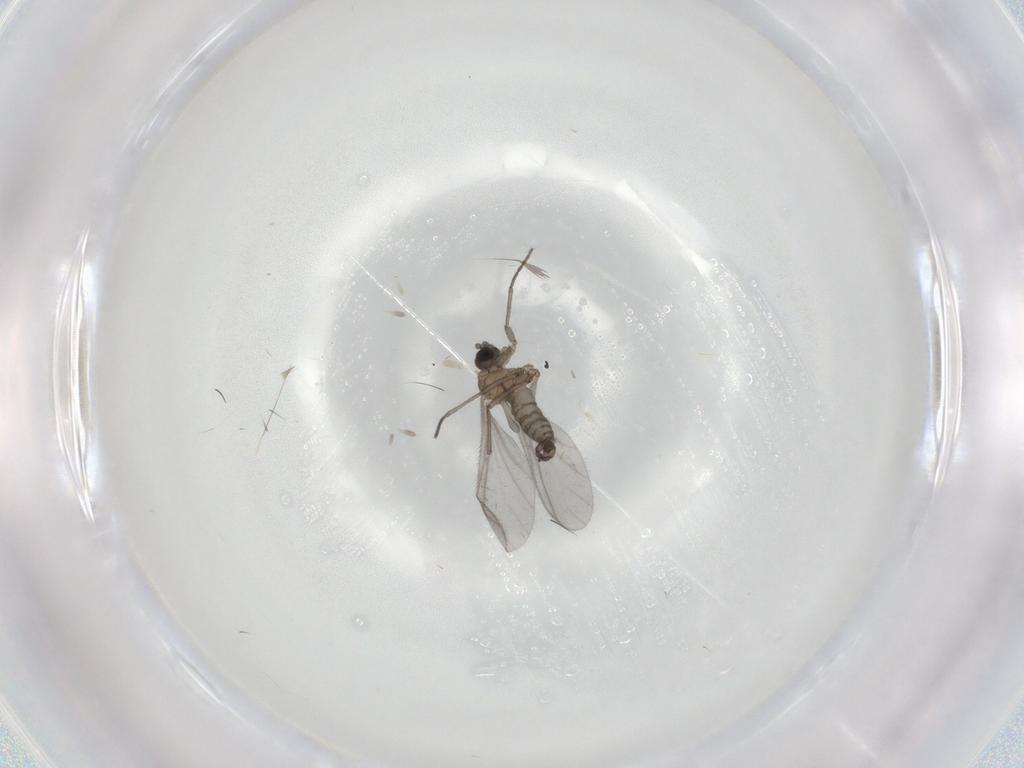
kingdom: Animalia
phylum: Arthropoda
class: Insecta
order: Diptera
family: Sciaridae
